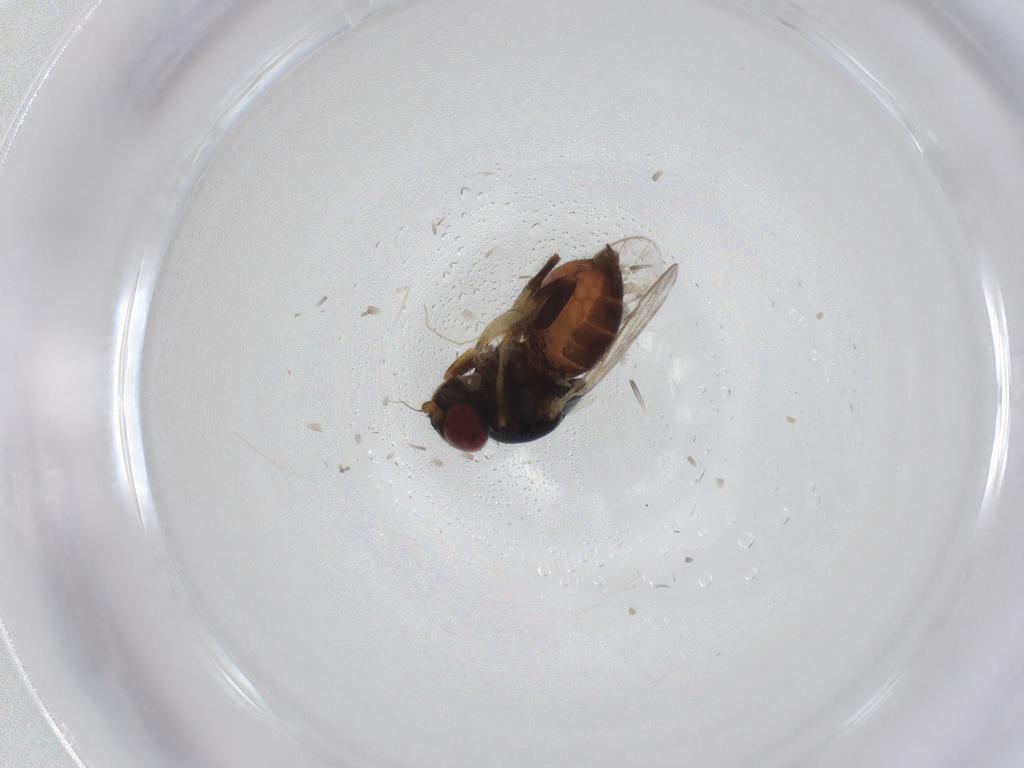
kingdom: Animalia
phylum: Arthropoda
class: Insecta
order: Diptera
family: Chloropidae
